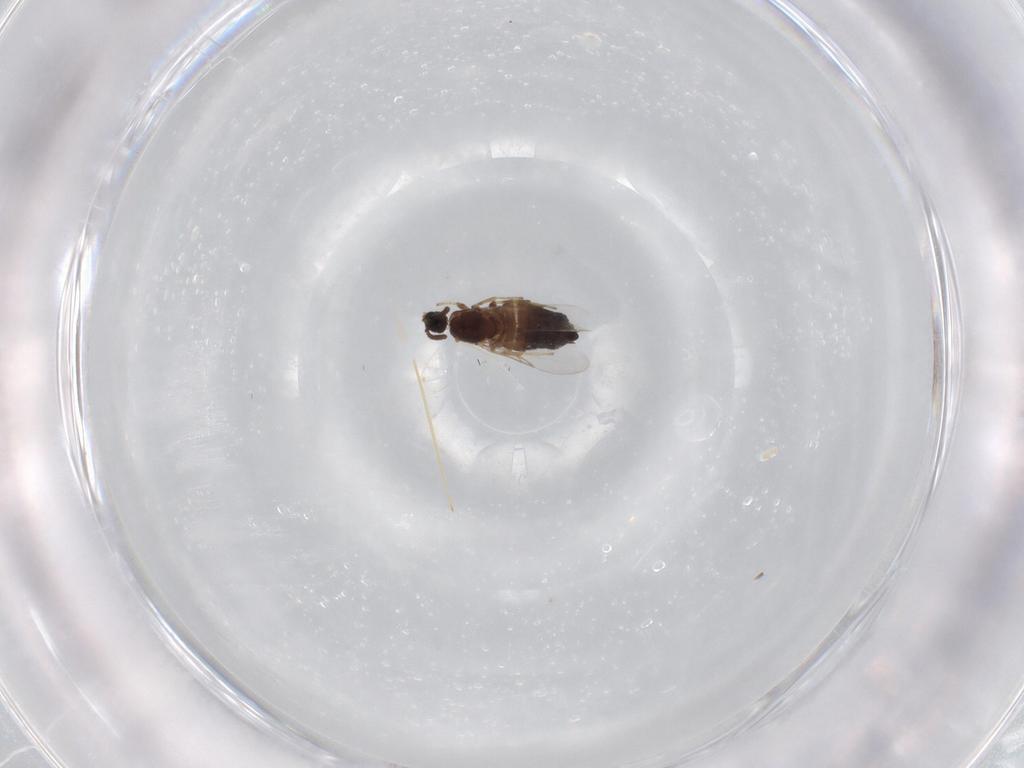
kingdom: Animalia
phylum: Arthropoda
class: Insecta
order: Diptera
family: Scatopsidae
